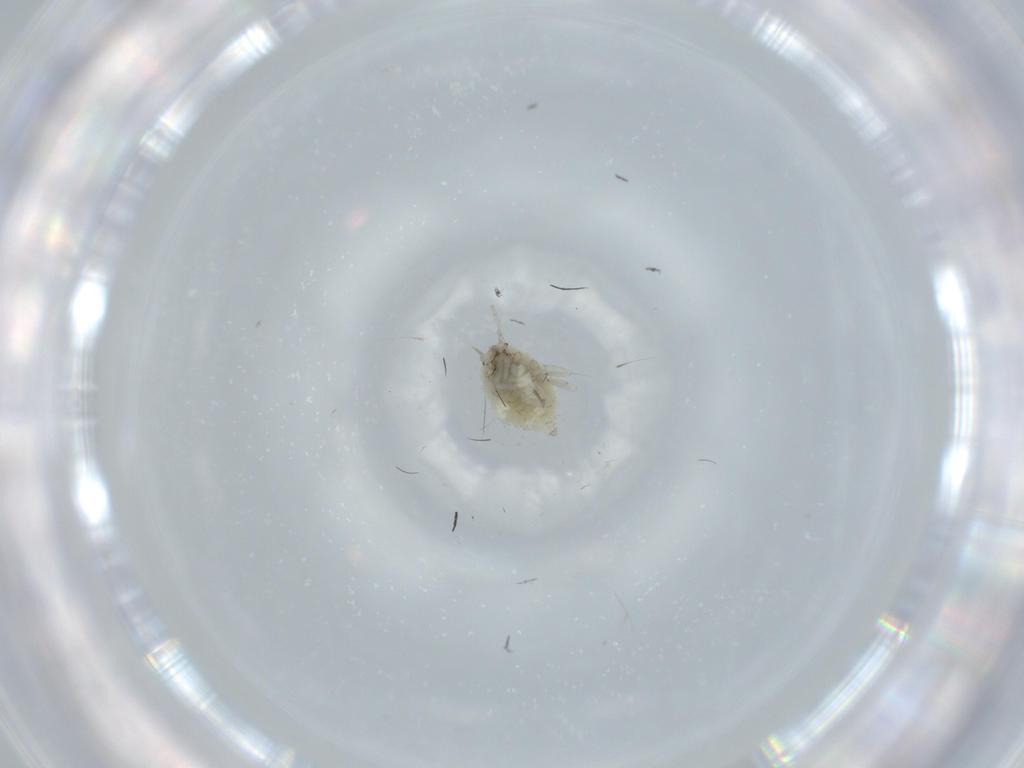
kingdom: Animalia
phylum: Arthropoda
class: Insecta
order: Neuroptera
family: Coniopterygidae
